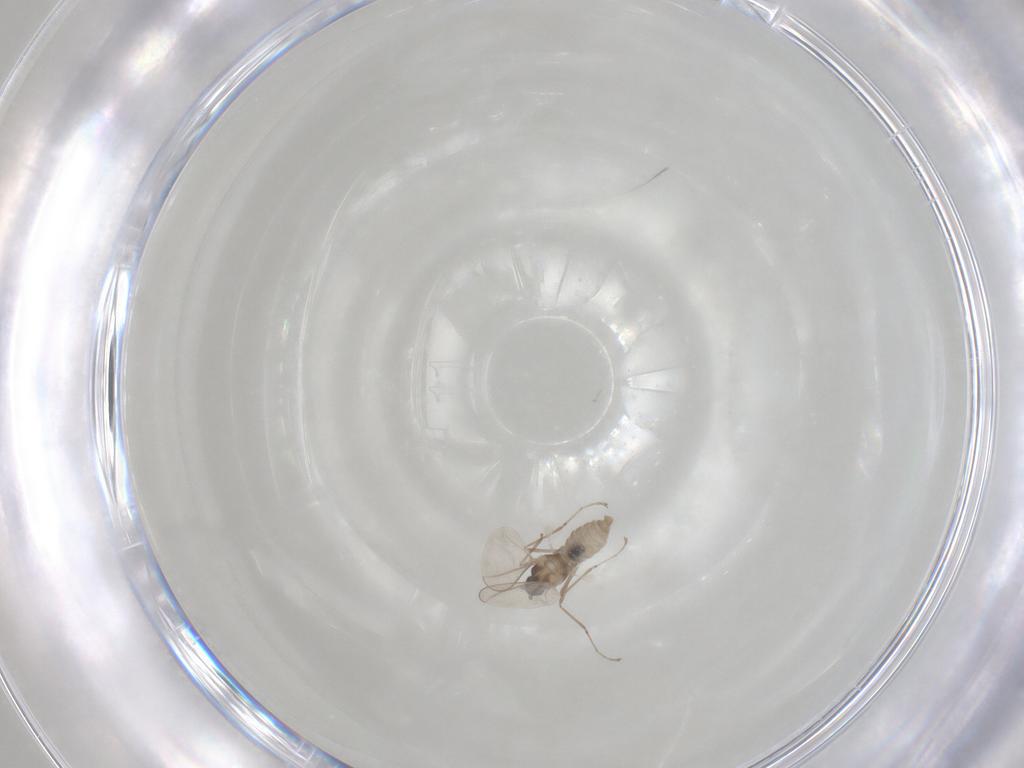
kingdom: Animalia
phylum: Arthropoda
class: Insecta
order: Diptera
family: Cecidomyiidae
